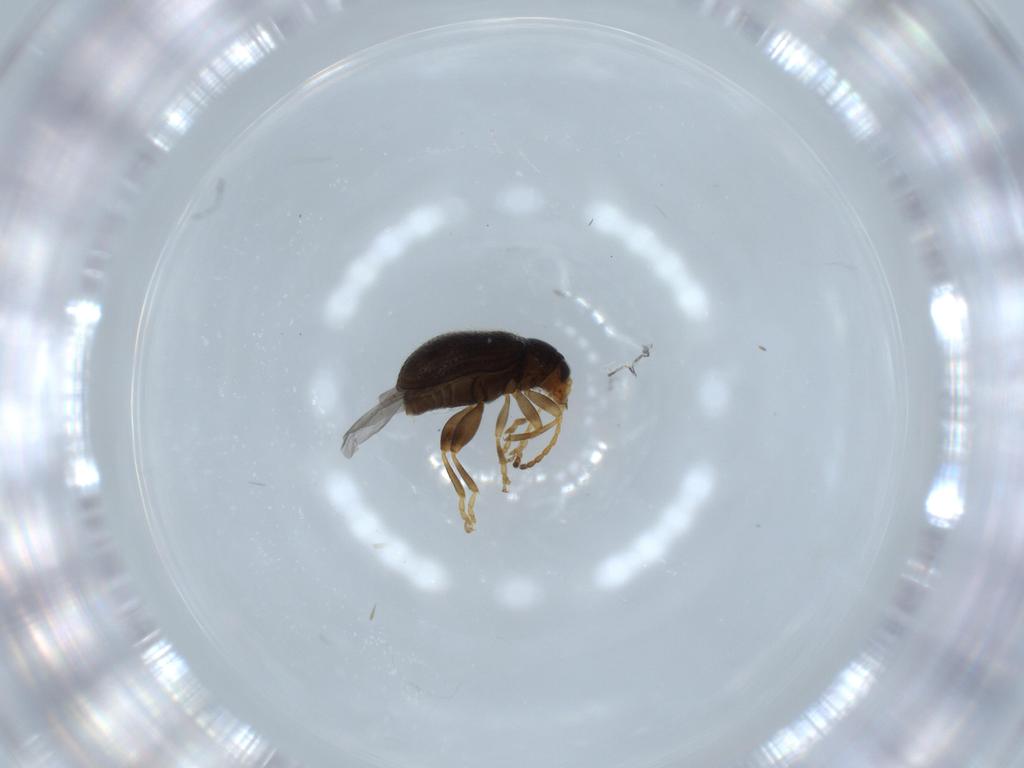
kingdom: Animalia
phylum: Arthropoda
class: Insecta
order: Coleoptera
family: Chrysomelidae
